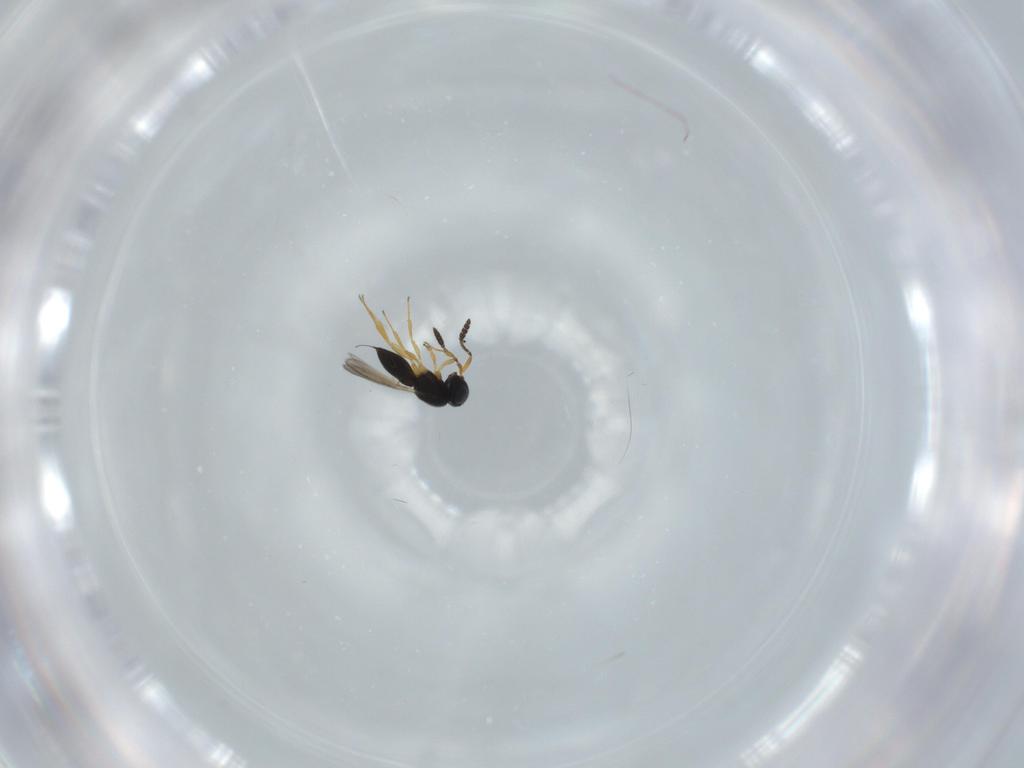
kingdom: Animalia
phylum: Arthropoda
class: Insecta
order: Hymenoptera
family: Scelionidae
